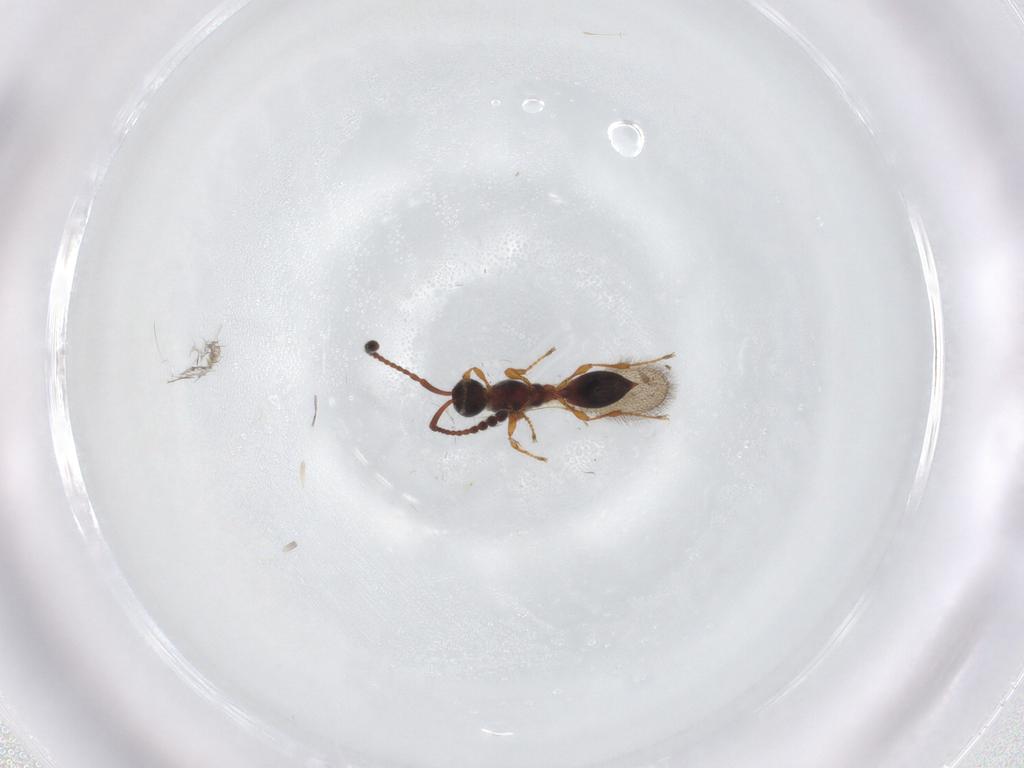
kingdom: Animalia
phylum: Arthropoda
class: Insecta
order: Hymenoptera
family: Diapriidae
